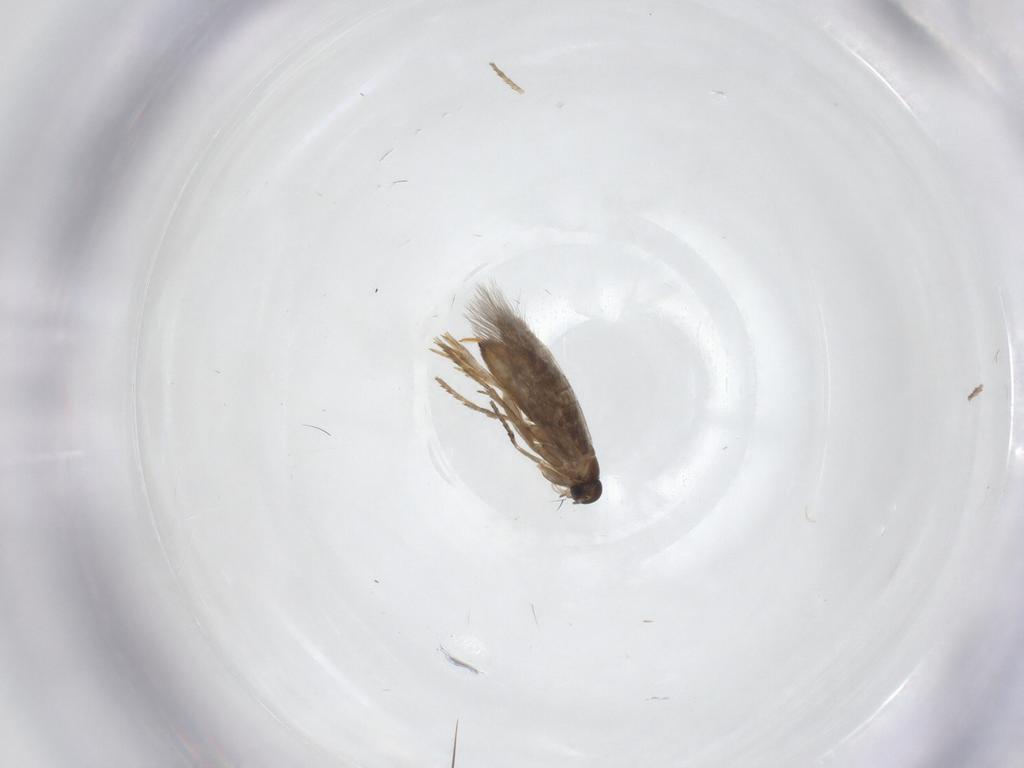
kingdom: Animalia
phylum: Arthropoda
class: Insecta
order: Lepidoptera
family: Heliozelidae
